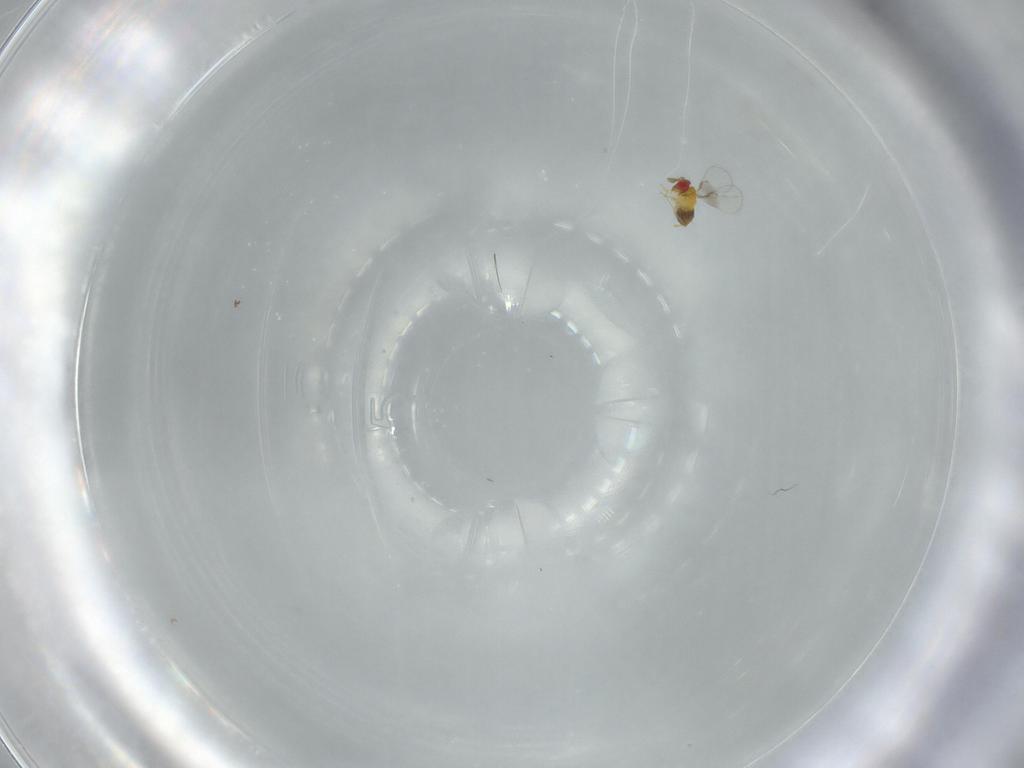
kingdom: Animalia
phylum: Arthropoda
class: Insecta
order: Hymenoptera
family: Trichogrammatidae
